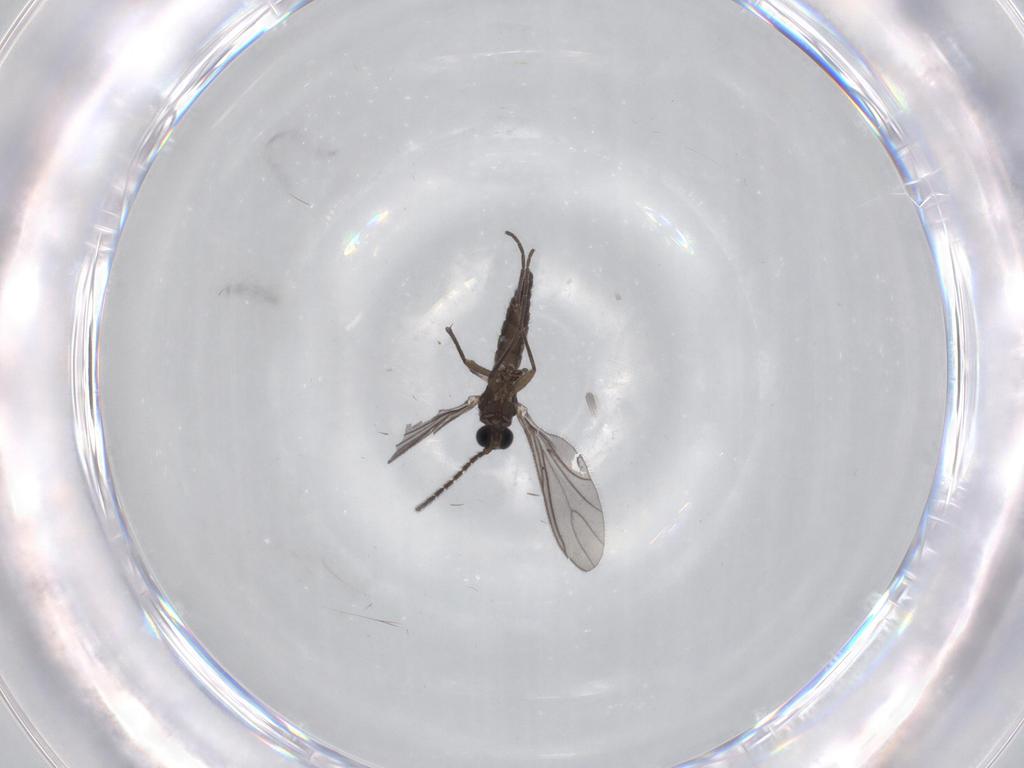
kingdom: Animalia
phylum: Arthropoda
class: Insecta
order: Diptera
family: Sciaridae
